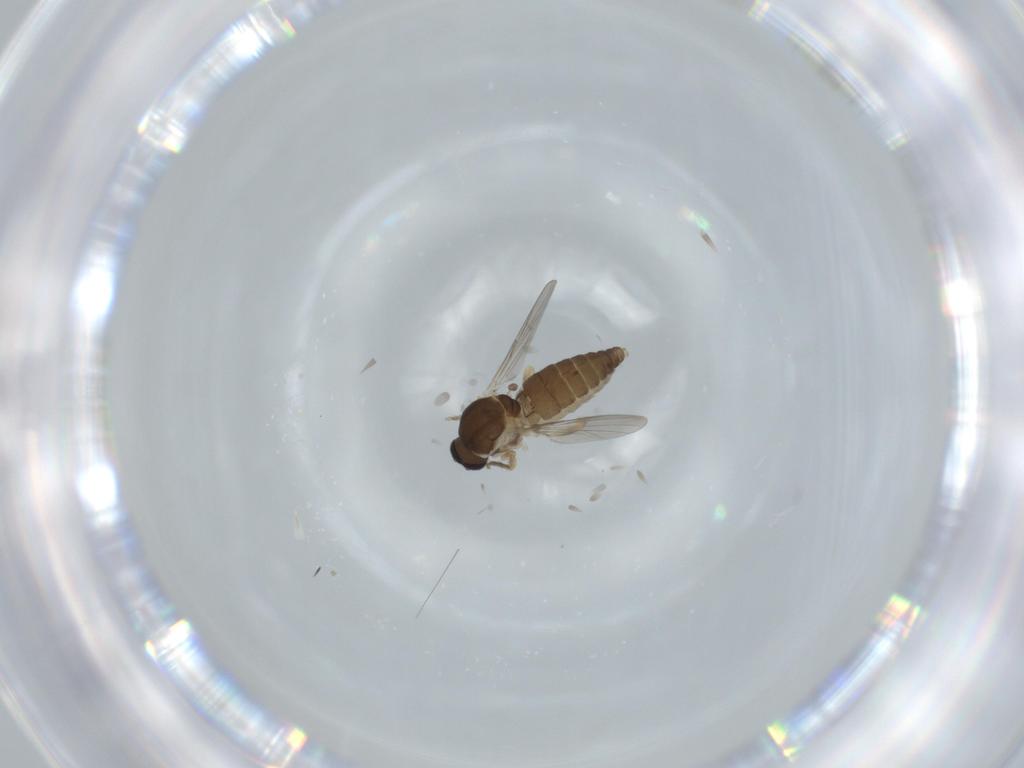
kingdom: Animalia
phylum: Arthropoda
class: Insecta
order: Diptera
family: Ceratopogonidae
